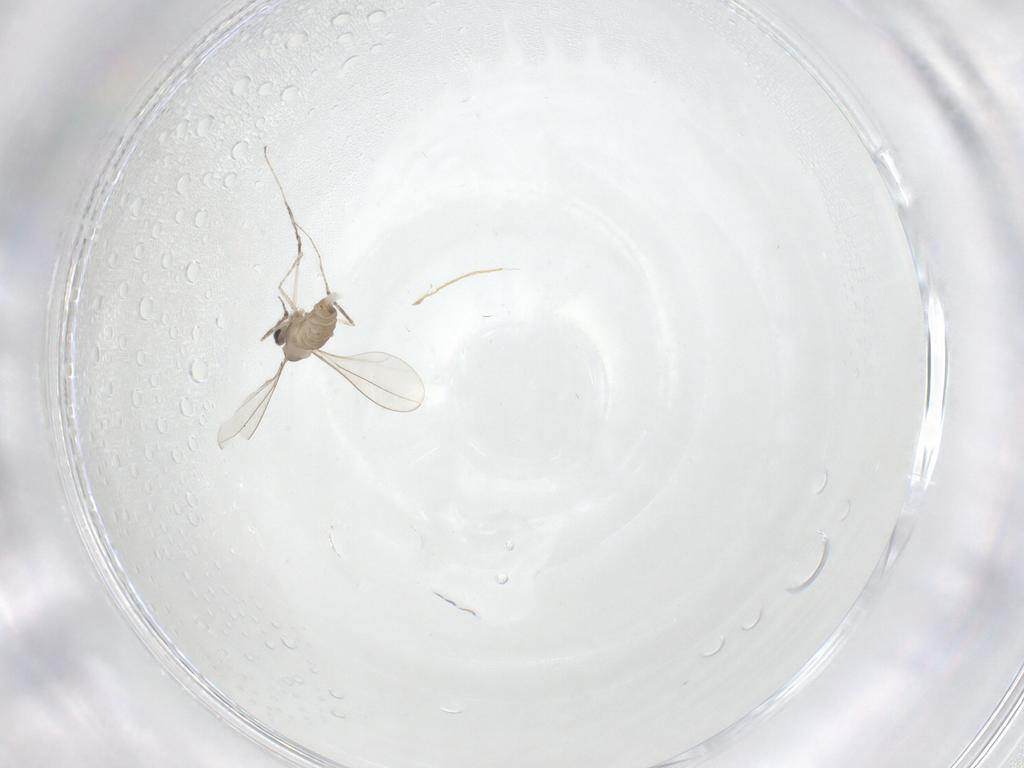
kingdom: Animalia
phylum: Arthropoda
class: Insecta
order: Diptera
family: Cecidomyiidae
